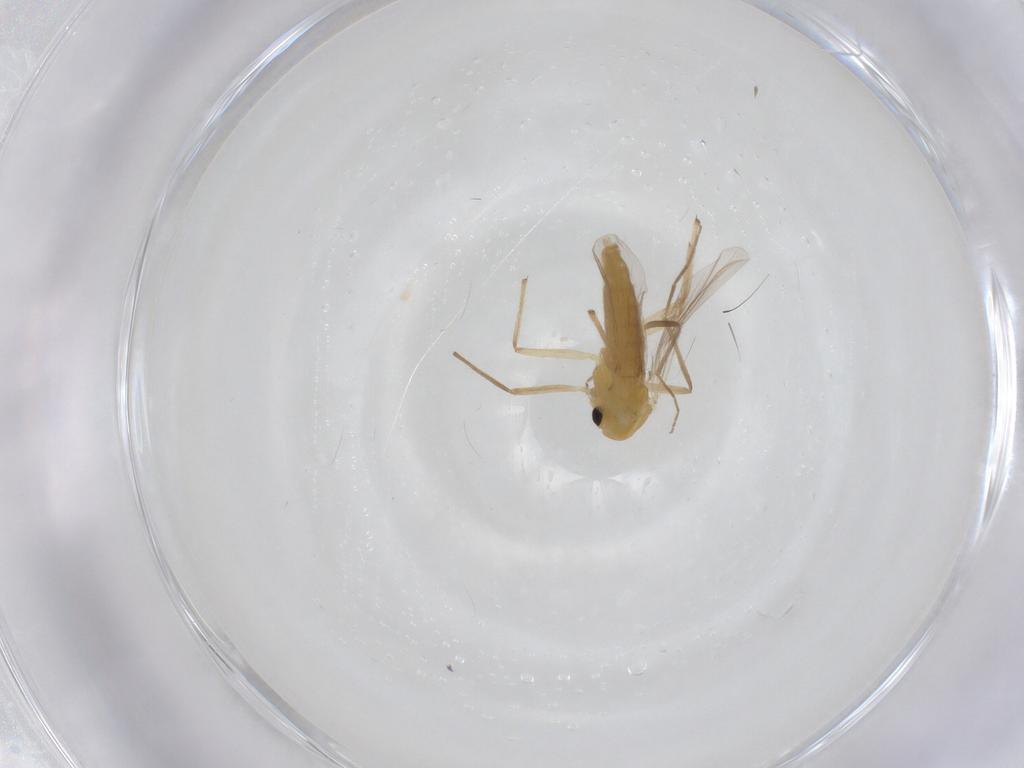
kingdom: Animalia
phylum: Arthropoda
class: Insecta
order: Diptera
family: Chironomidae
